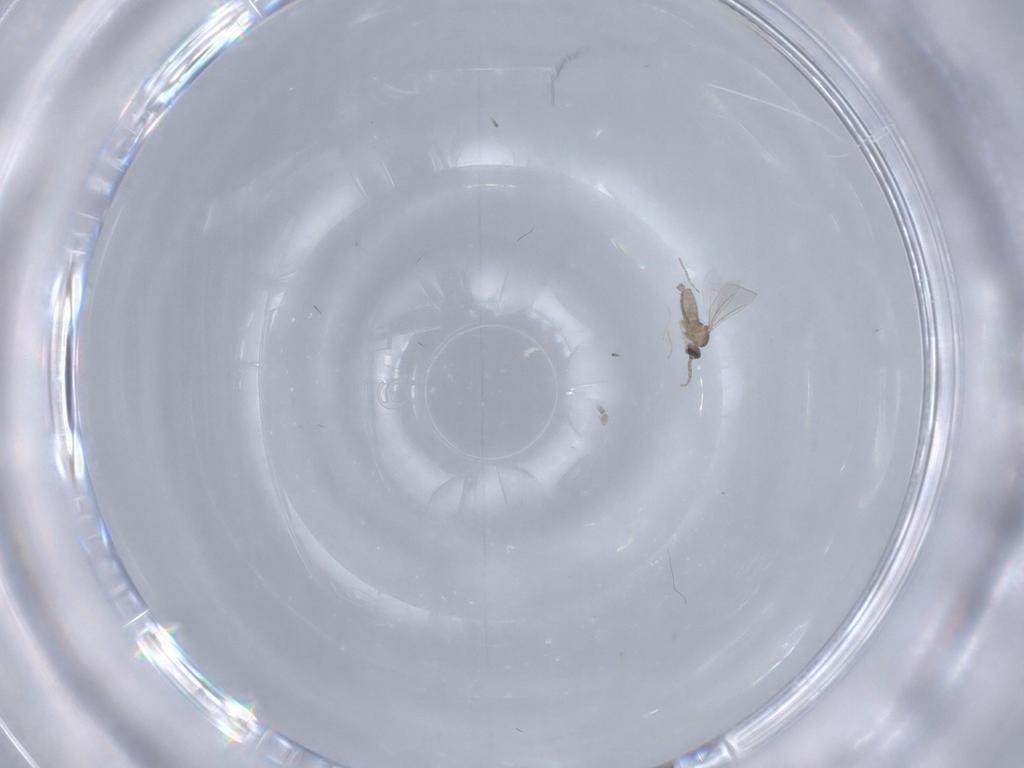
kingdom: Animalia
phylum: Arthropoda
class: Insecta
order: Diptera
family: Cecidomyiidae
